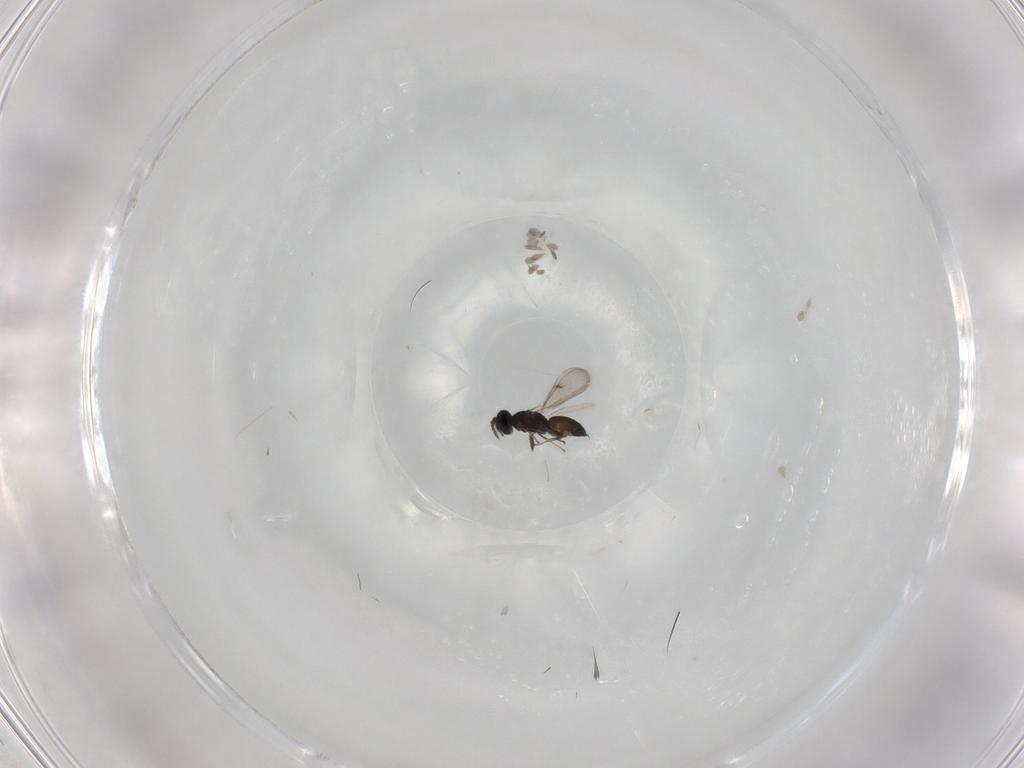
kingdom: Animalia
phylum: Arthropoda
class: Insecta
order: Hymenoptera
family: Eulophidae
